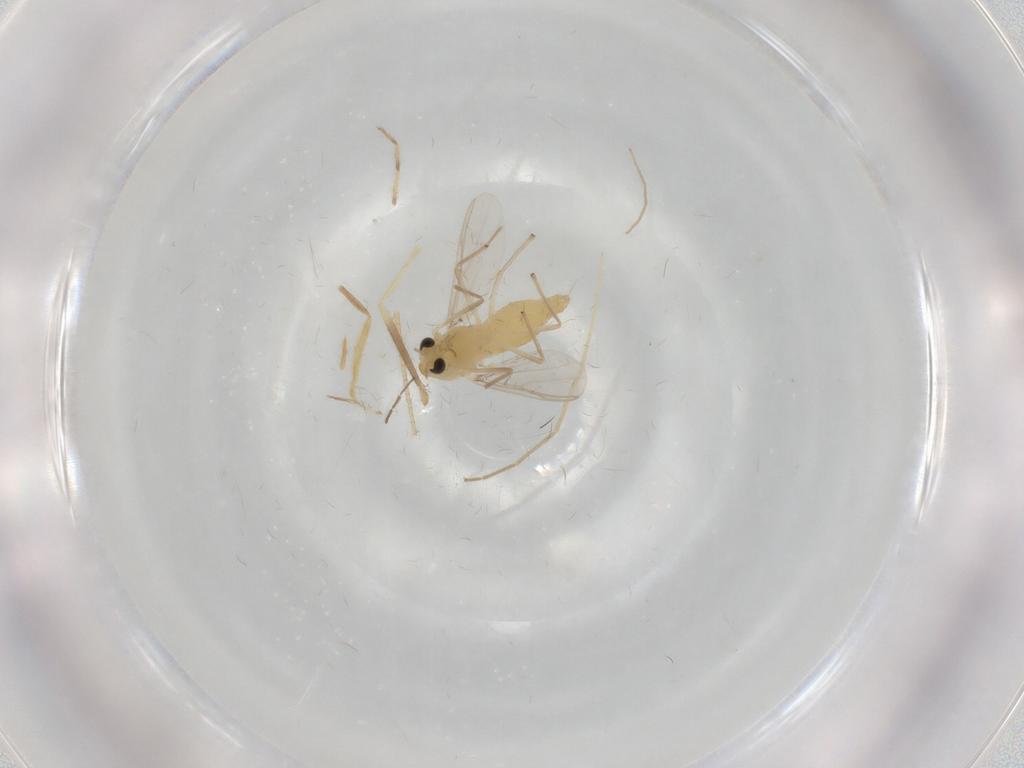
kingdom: Animalia
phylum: Arthropoda
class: Insecta
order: Diptera
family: Chironomidae
